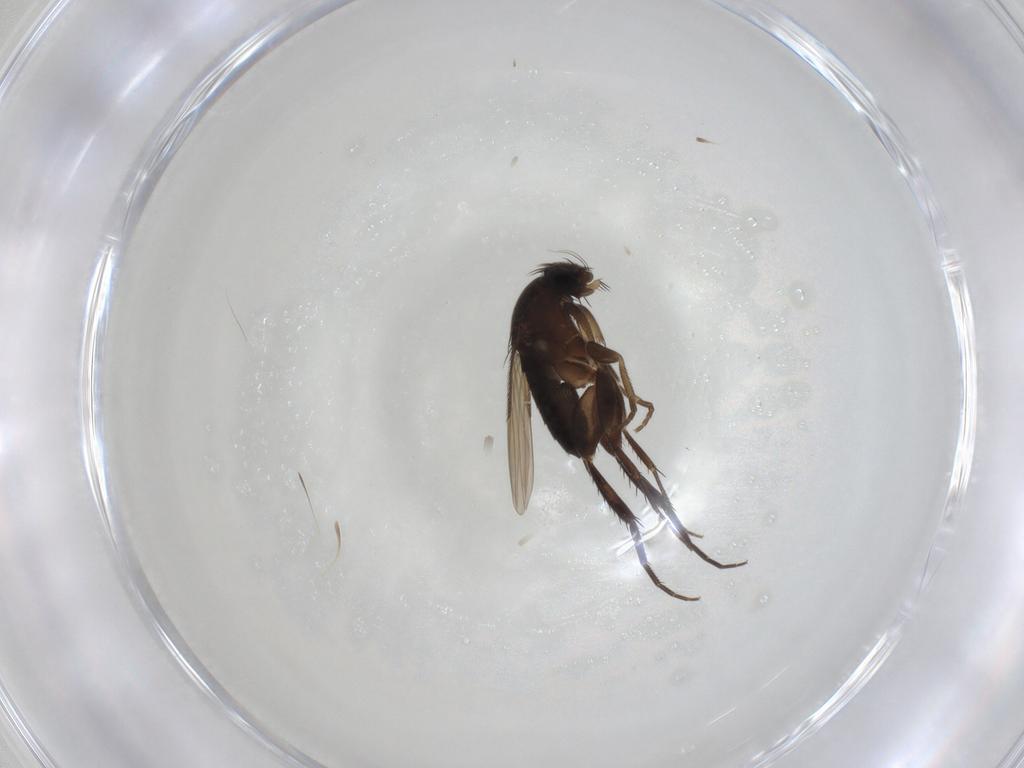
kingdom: Animalia
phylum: Arthropoda
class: Insecta
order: Diptera
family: Phoridae
